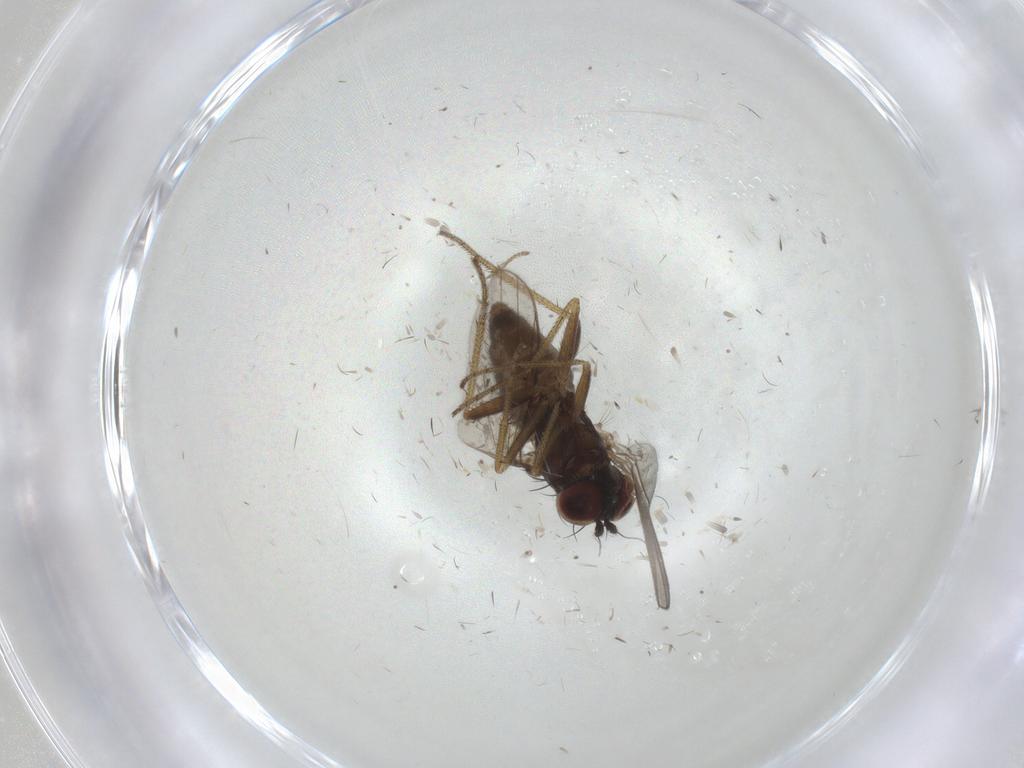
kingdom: Animalia
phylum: Arthropoda
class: Insecta
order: Diptera
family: Psychodidae
